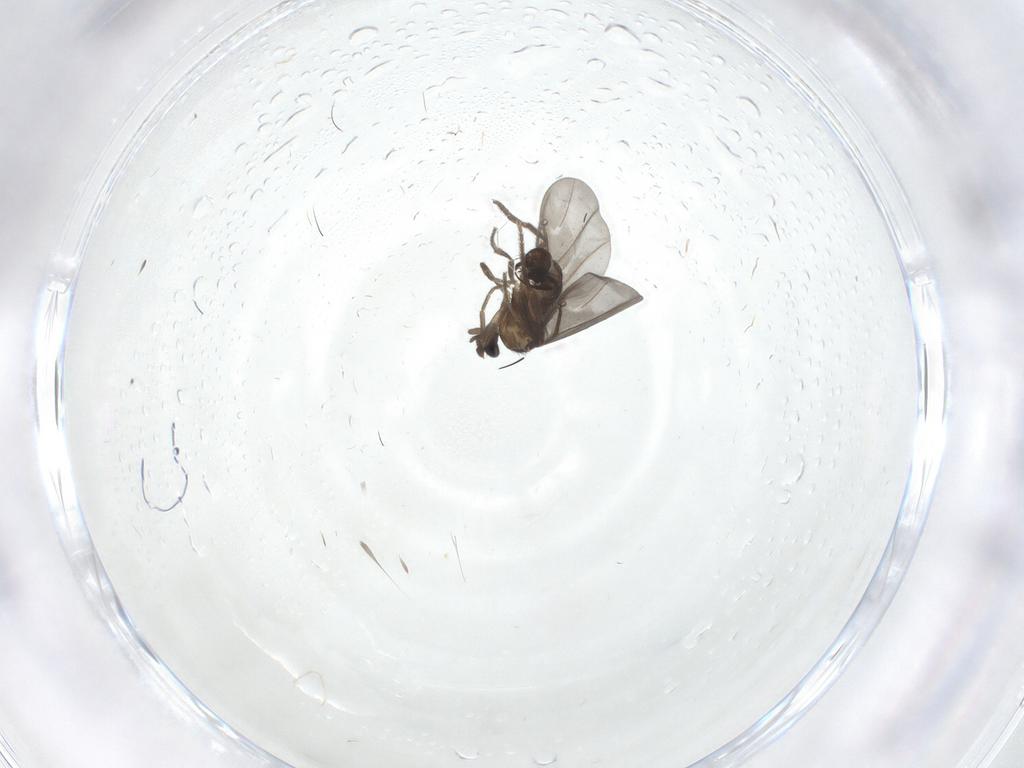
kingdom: Animalia
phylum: Arthropoda
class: Insecta
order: Diptera
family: Phoridae
